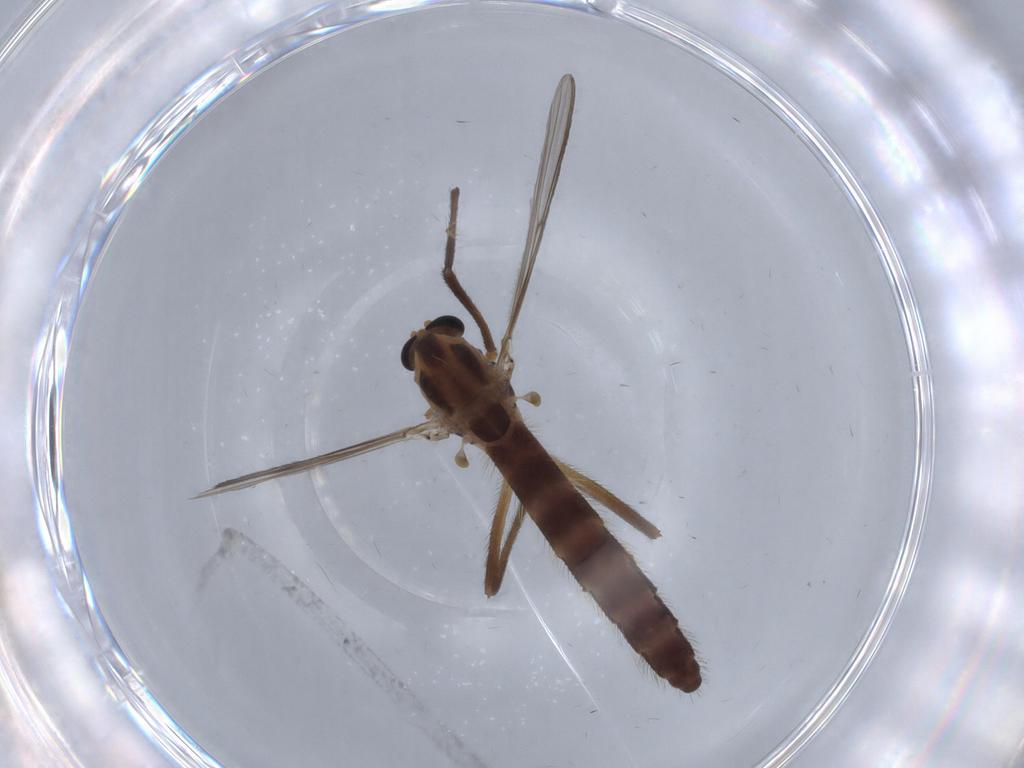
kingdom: Animalia
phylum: Arthropoda
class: Insecta
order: Diptera
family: Chironomidae
